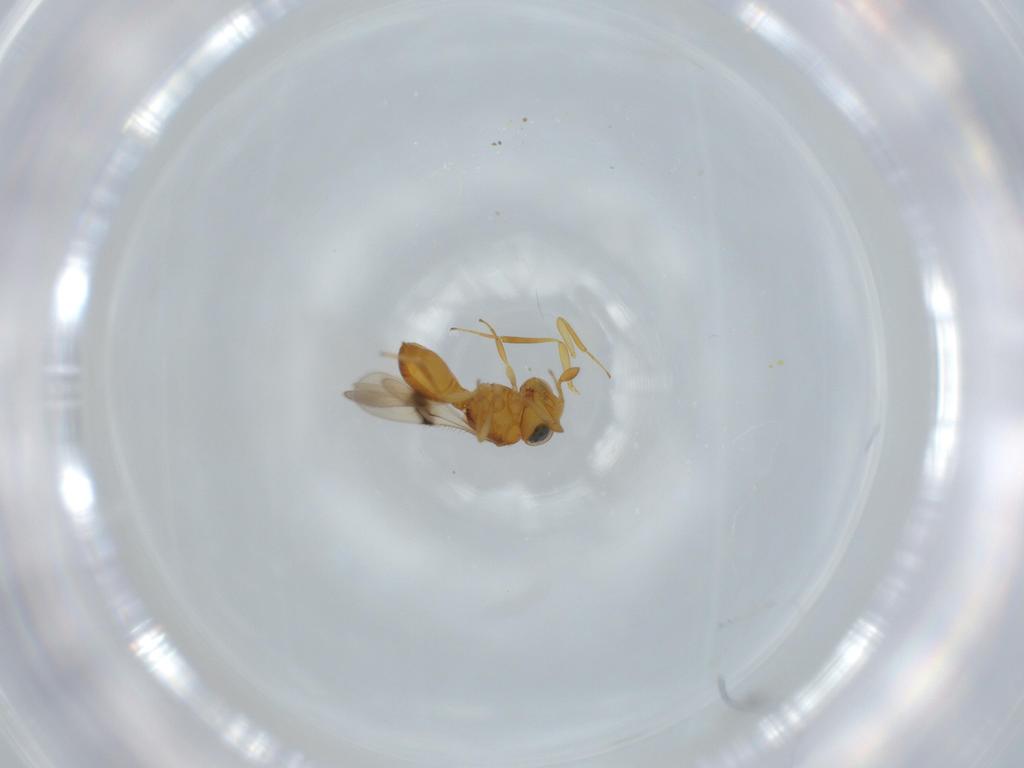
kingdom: Animalia
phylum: Arthropoda
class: Insecta
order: Hymenoptera
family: Scelionidae
